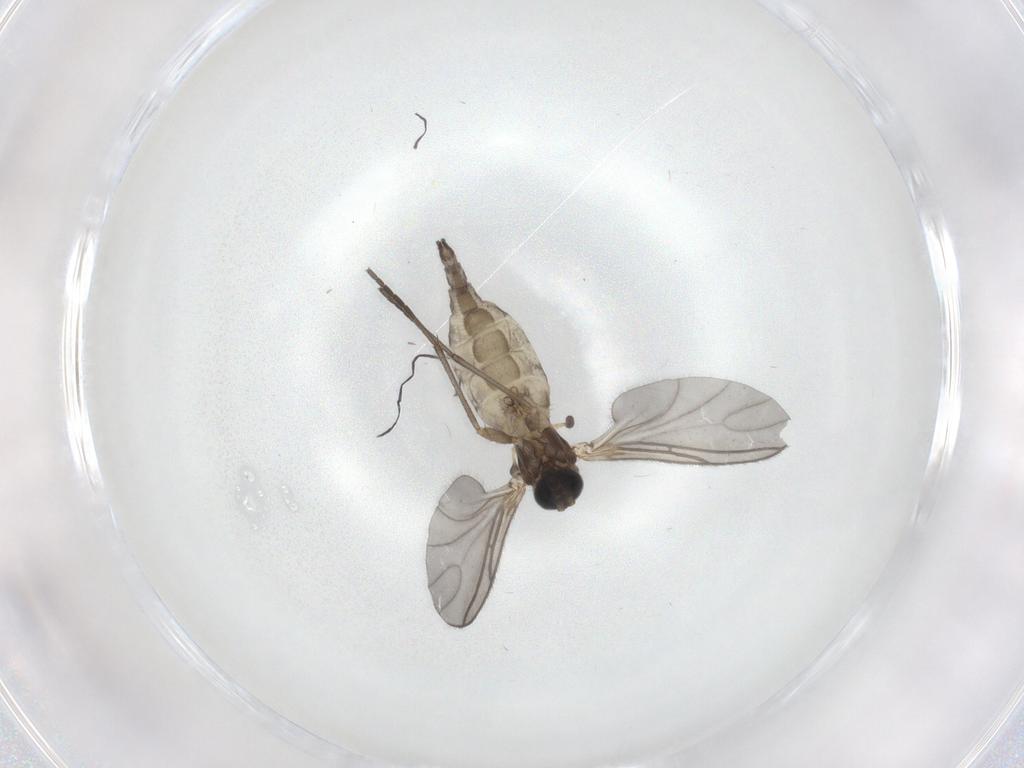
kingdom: Animalia
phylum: Arthropoda
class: Insecta
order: Diptera
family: Sciaridae
